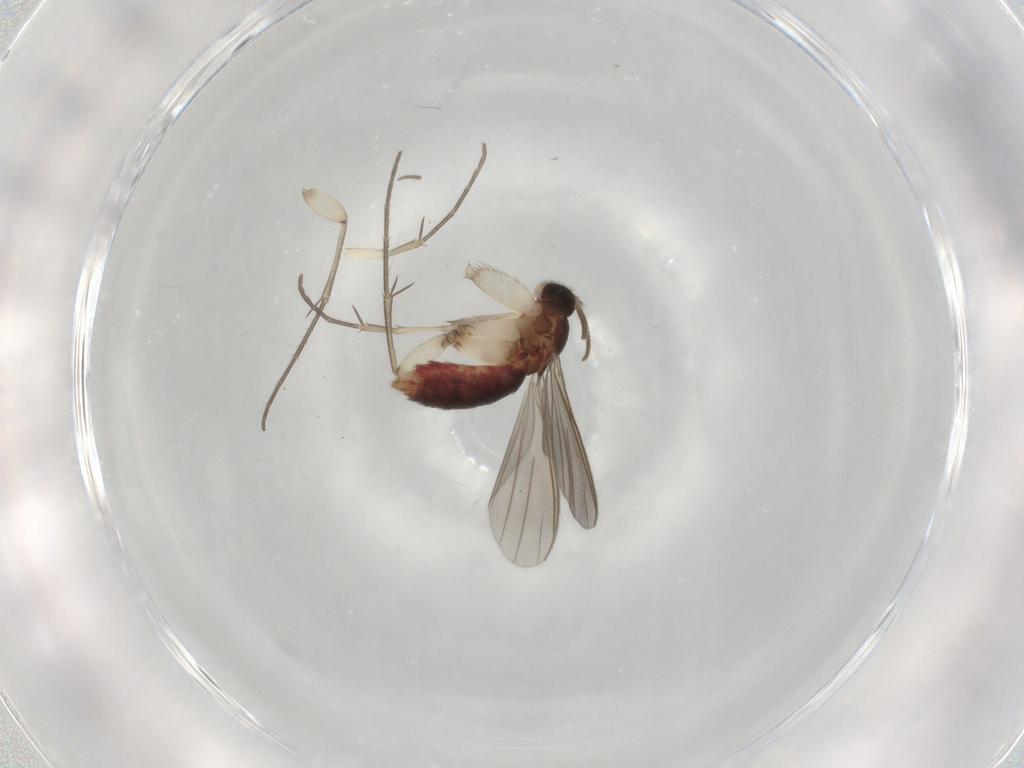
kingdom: Animalia
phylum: Arthropoda
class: Insecta
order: Diptera
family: Mycetophilidae
